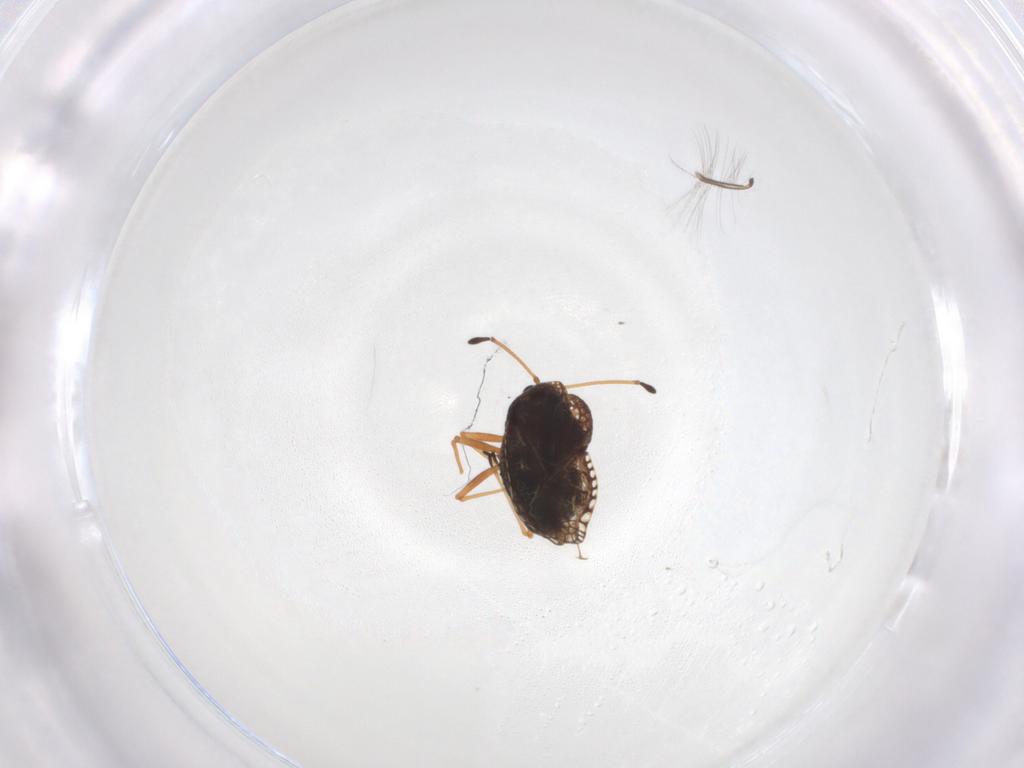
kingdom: Animalia
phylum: Arthropoda
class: Insecta
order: Hemiptera
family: Tingidae
